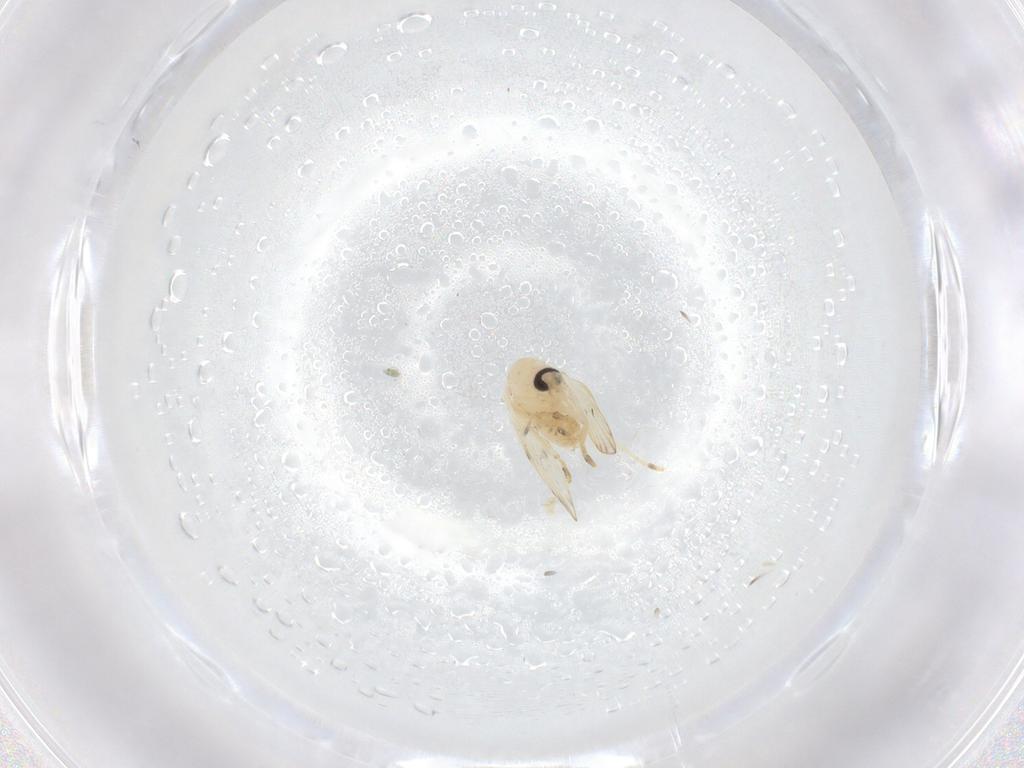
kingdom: Animalia
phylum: Arthropoda
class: Insecta
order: Diptera
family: Psychodidae
